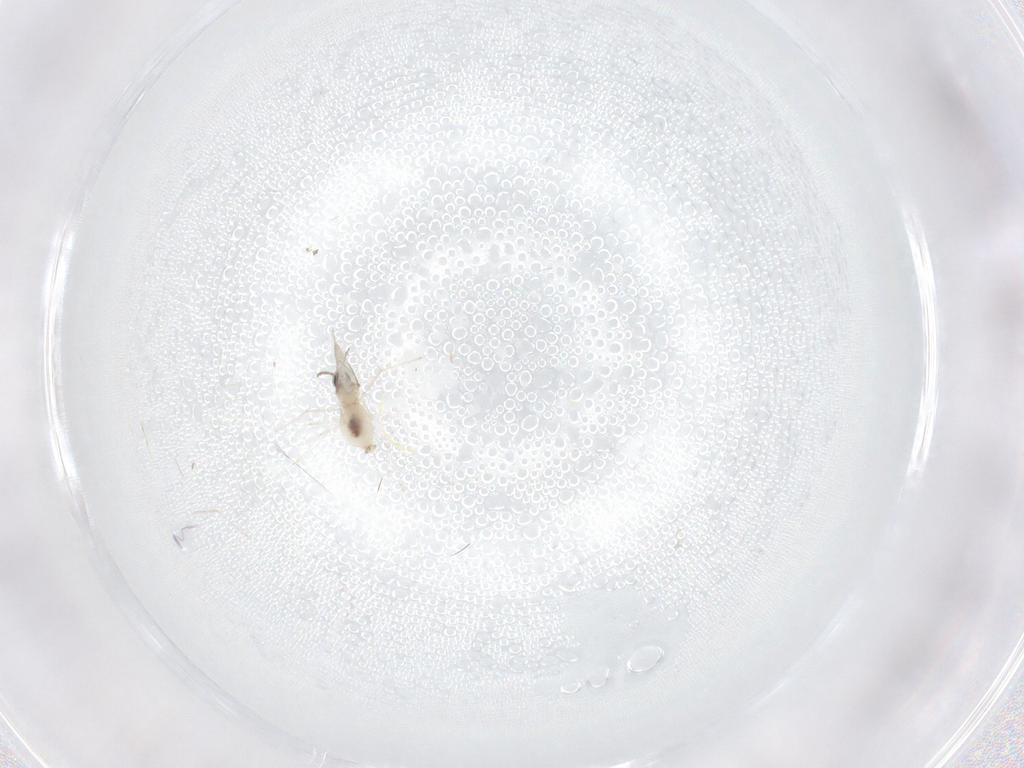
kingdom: Animalia
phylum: Arthropoda
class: Insecta
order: Diptera
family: Cecidomyiidae
